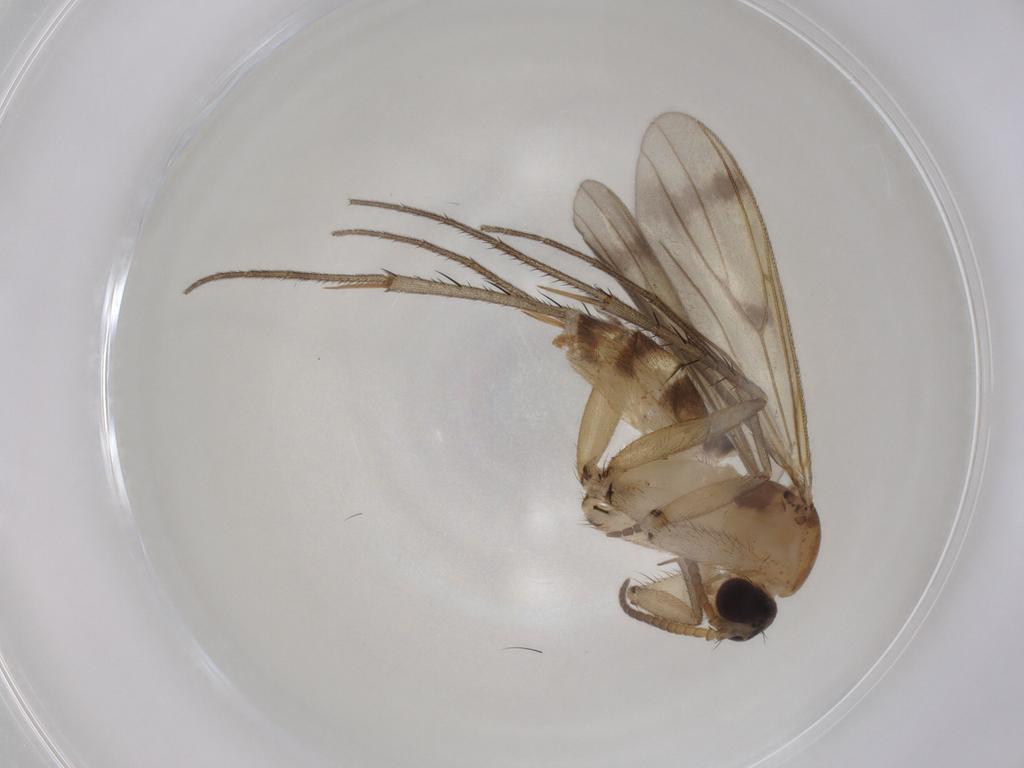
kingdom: Animalia
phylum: Arthropoda
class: Insecta
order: Diptera
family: Mycetophilidae
